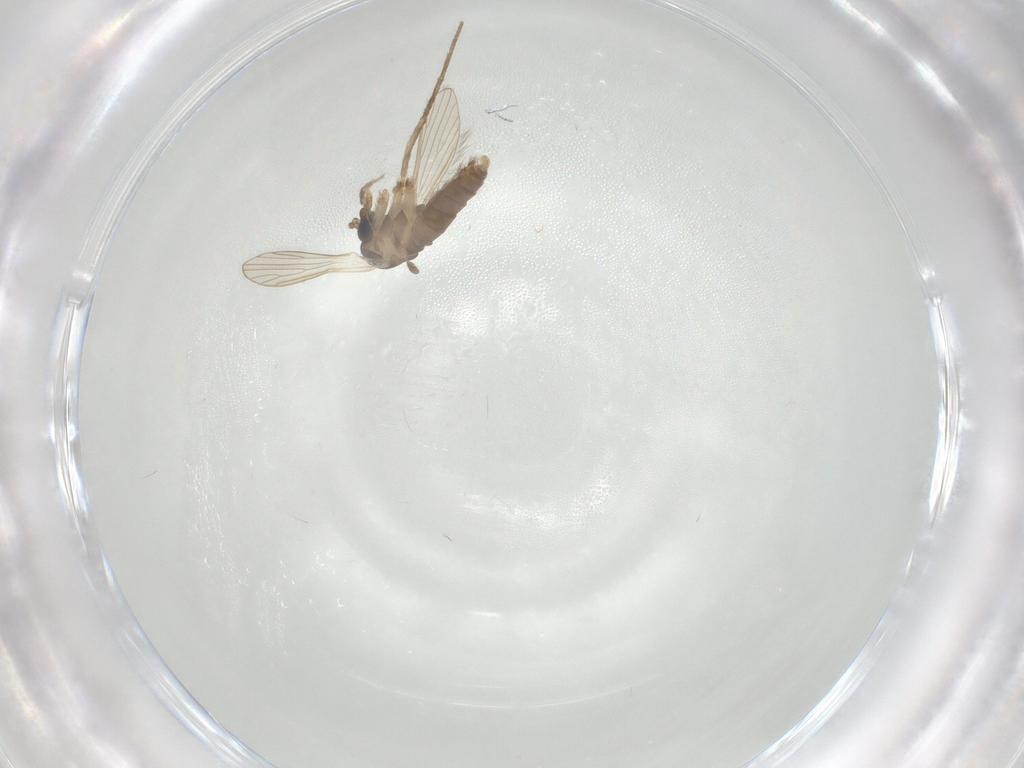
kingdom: Animalia
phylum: Arthropoda
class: Insecta
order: Diptera
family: Psychodidae
